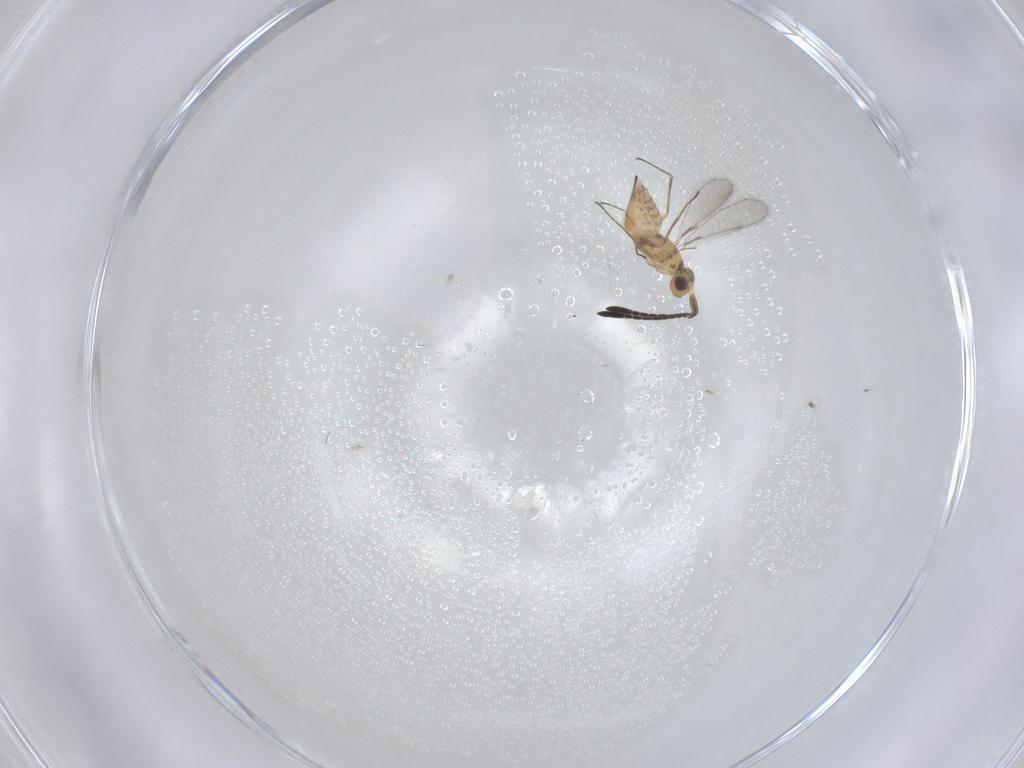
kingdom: Animalia
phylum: Arthropoda
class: Insecta
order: Hymenoptera
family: Mymaridae
